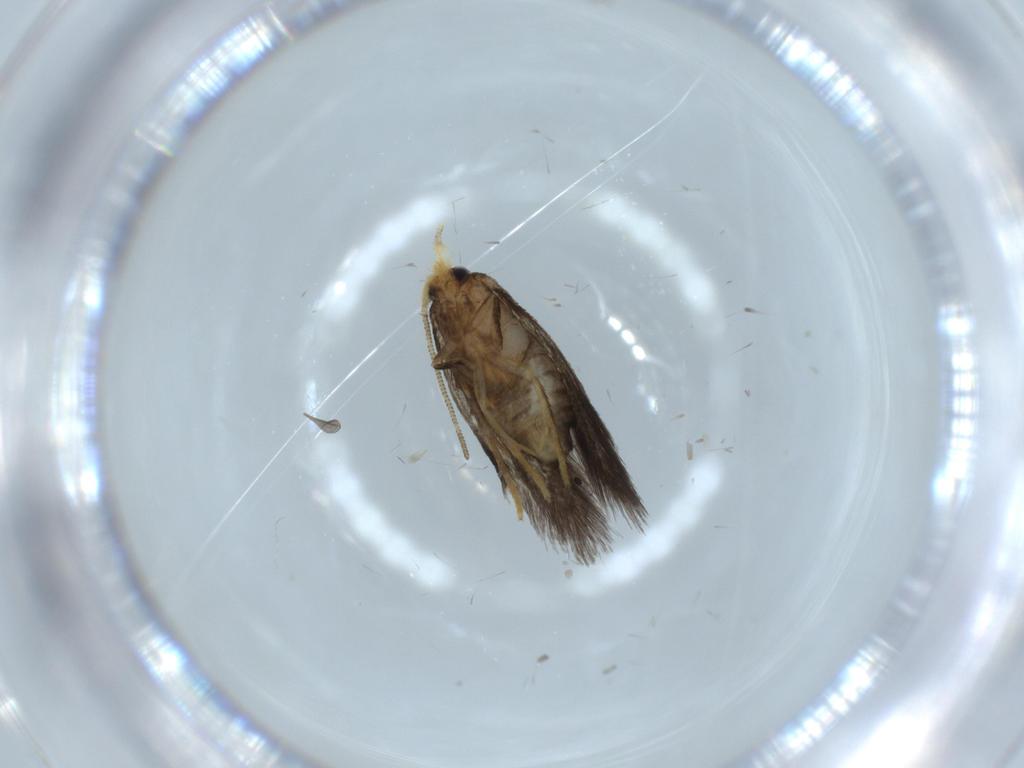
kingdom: Animalia
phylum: Arthropoda
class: Insecta
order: Lepidoptera
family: Nepticulidae
